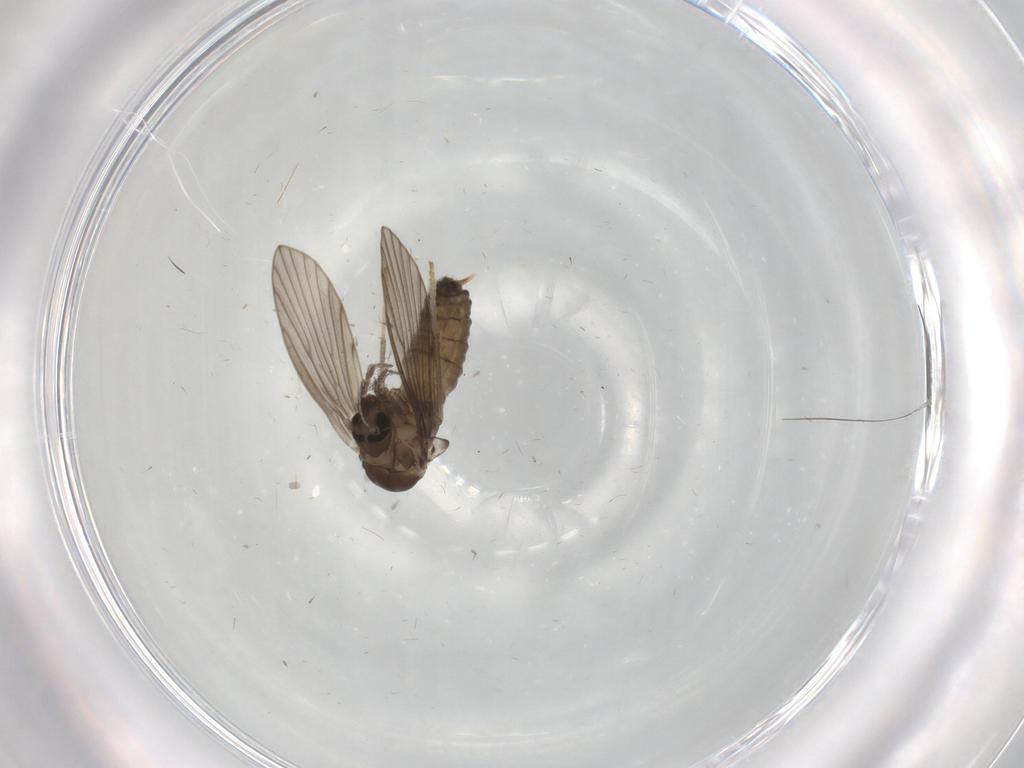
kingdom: Animalia
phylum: Arthropoda
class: Insecta
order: Diptera
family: Psychodidae
